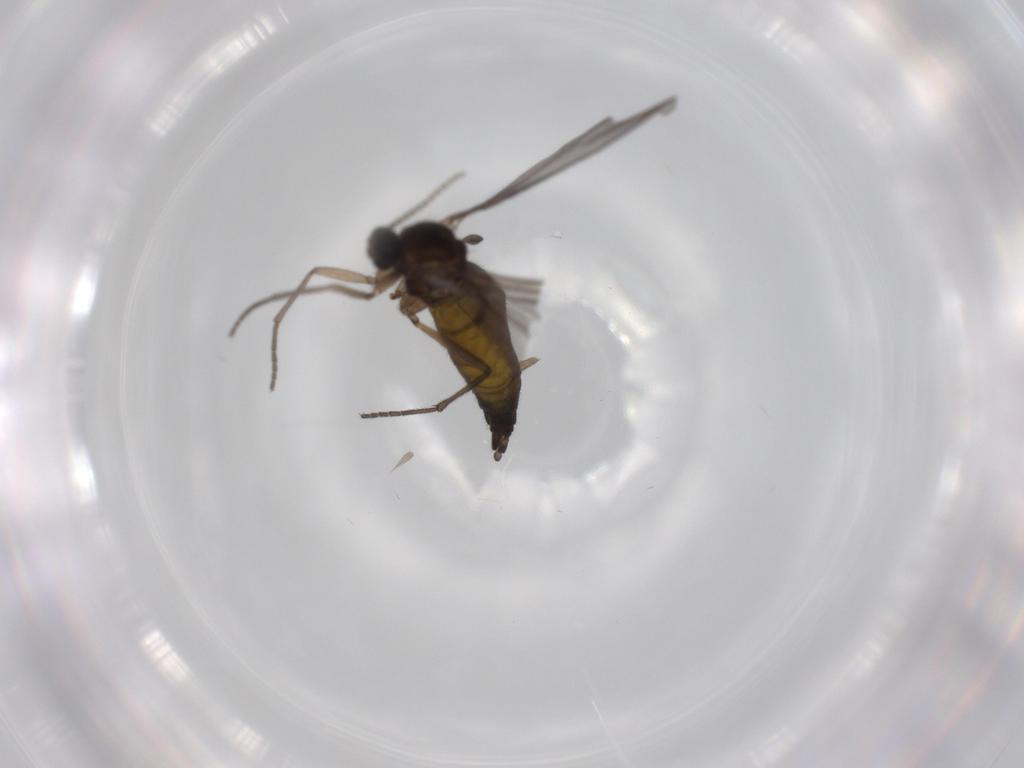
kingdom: Animalia
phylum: Arthropoda
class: Insecta
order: Diptera
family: Sciaridae
